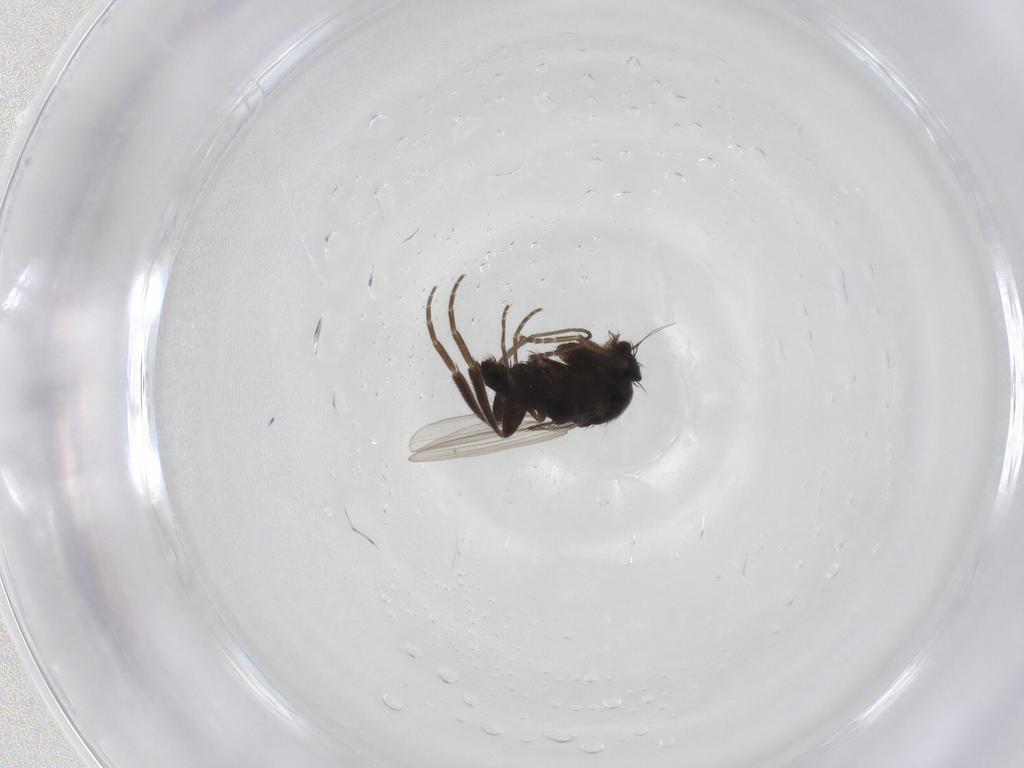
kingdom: Animalia
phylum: Arthropoda
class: Insecta
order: Diptera
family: Phoridae
